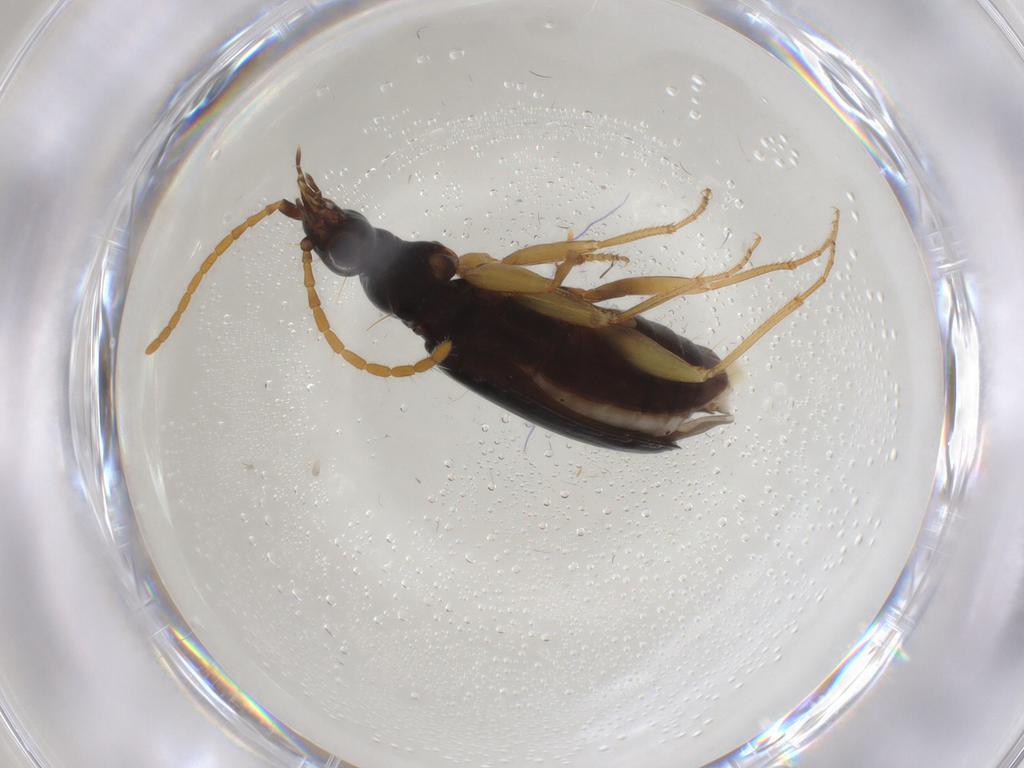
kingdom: Animalia
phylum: Arthropoda
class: Insecta
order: Coleoptera
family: Carabidae
